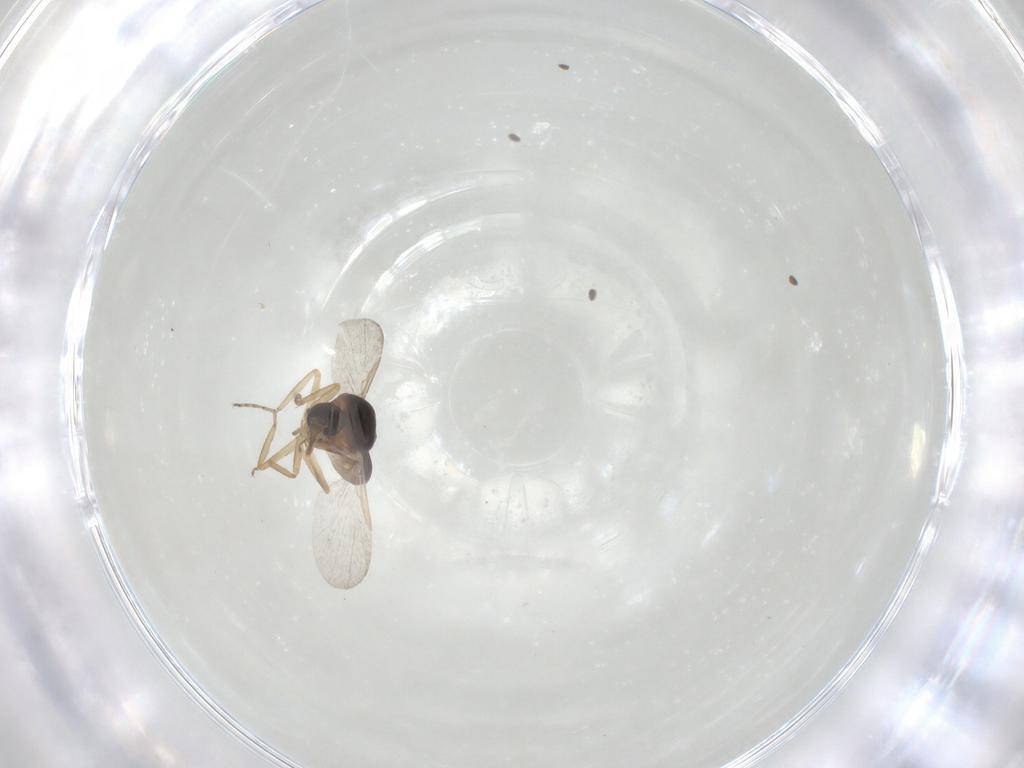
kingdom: Animalia
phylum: Arthropoda
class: Insecta
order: Diptera
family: Ceratopogonidae
